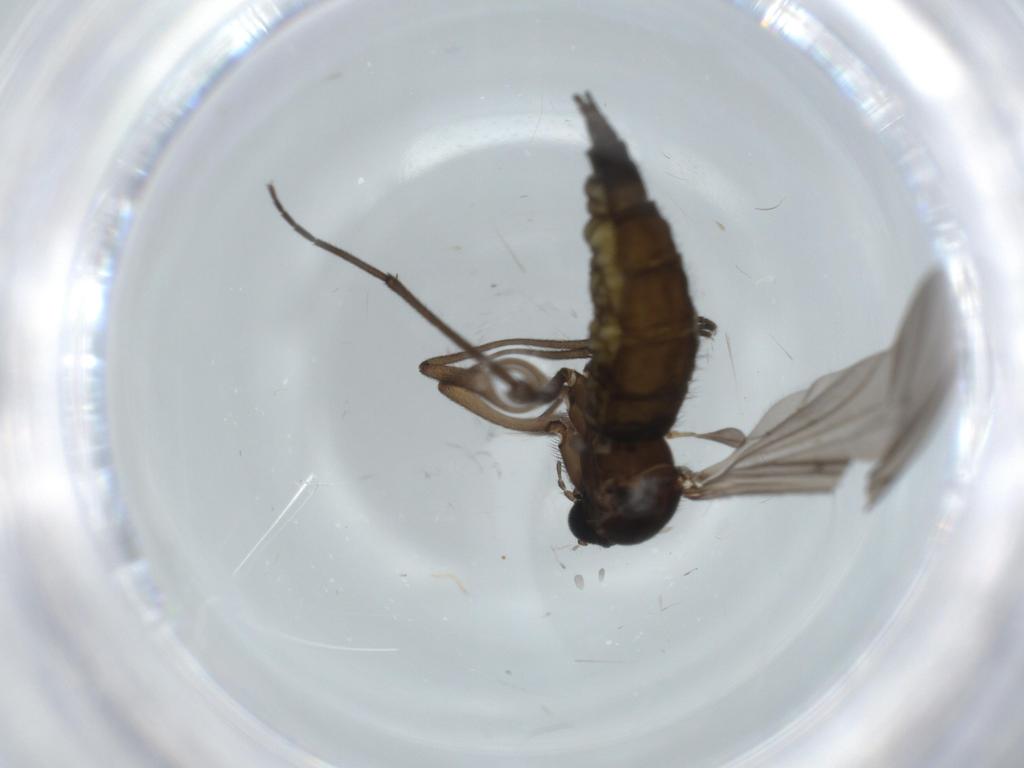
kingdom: Animalia
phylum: Arthropoda
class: Insecta
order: Diptera
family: Sciaridae
